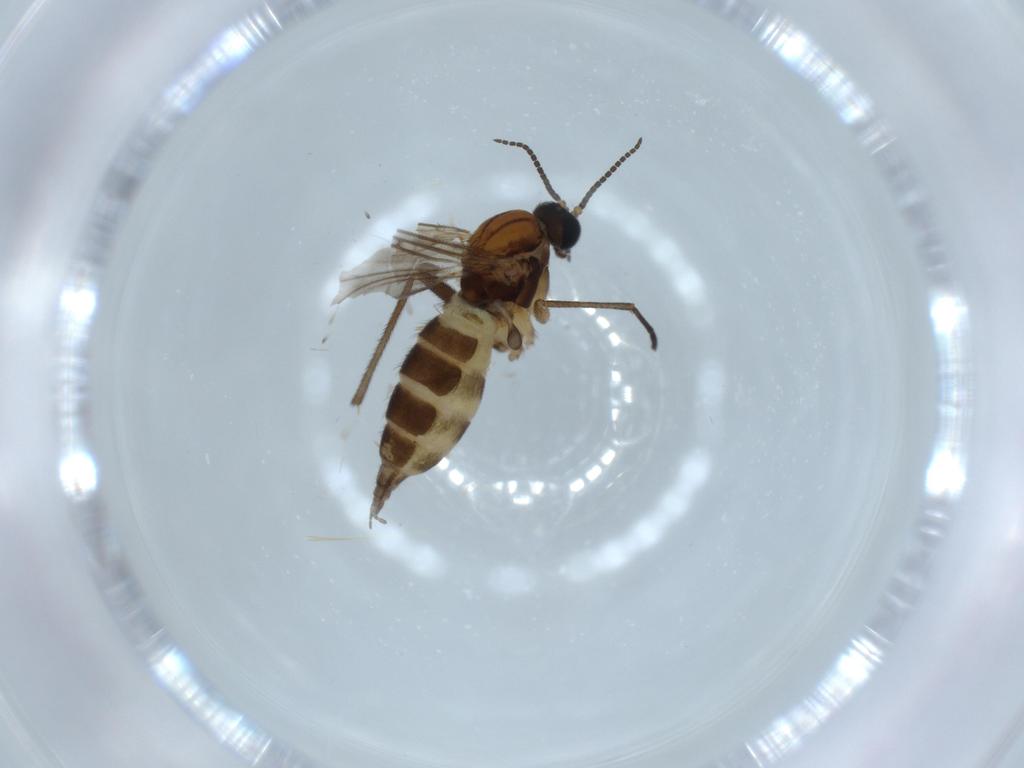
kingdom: Animalia
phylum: Arthropoda
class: Insecta
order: Diptera
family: Sciaridae
